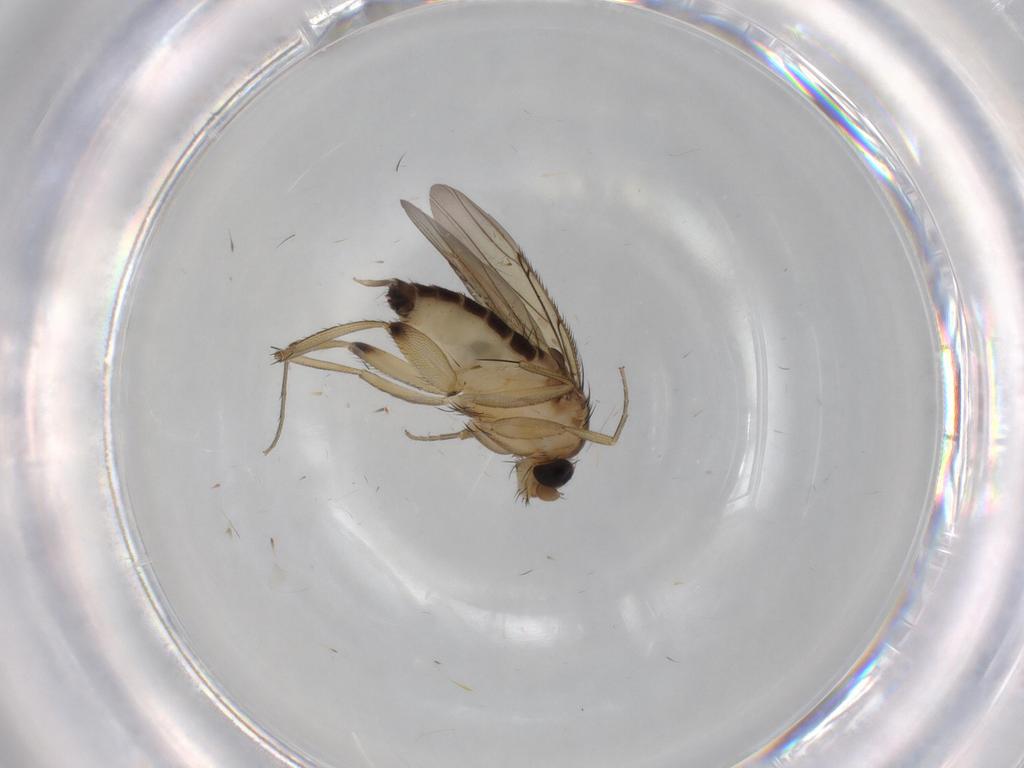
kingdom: Animalia
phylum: Arthropoda
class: Insecta
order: Diptera
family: Phoridae
